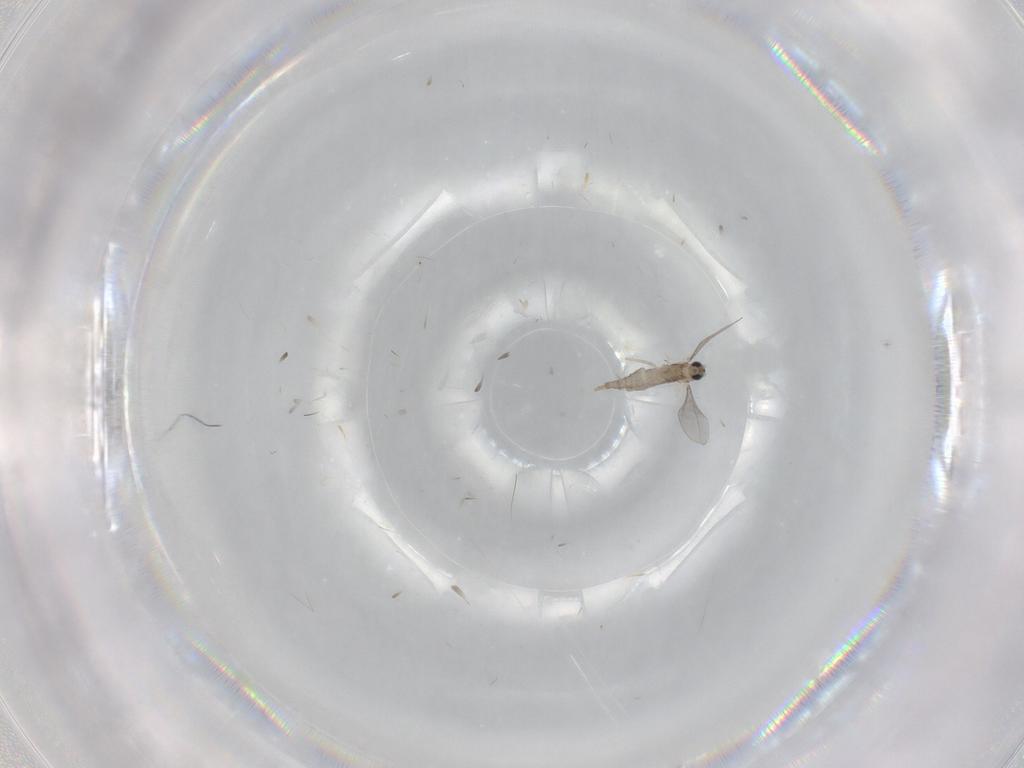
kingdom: Animalia
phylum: Arthropoda
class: Insecta
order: Diptera
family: Cecidomyiidae
